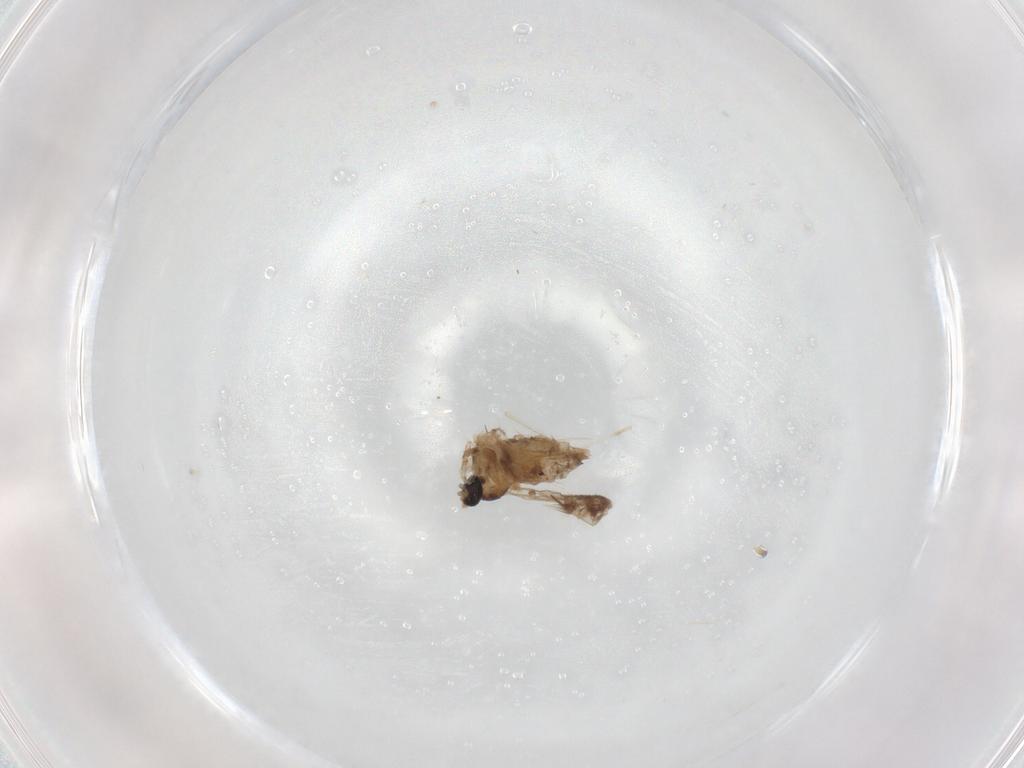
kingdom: Animalia
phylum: Arthropoda
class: Insecta
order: Diptera
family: Cecidomyiidae
